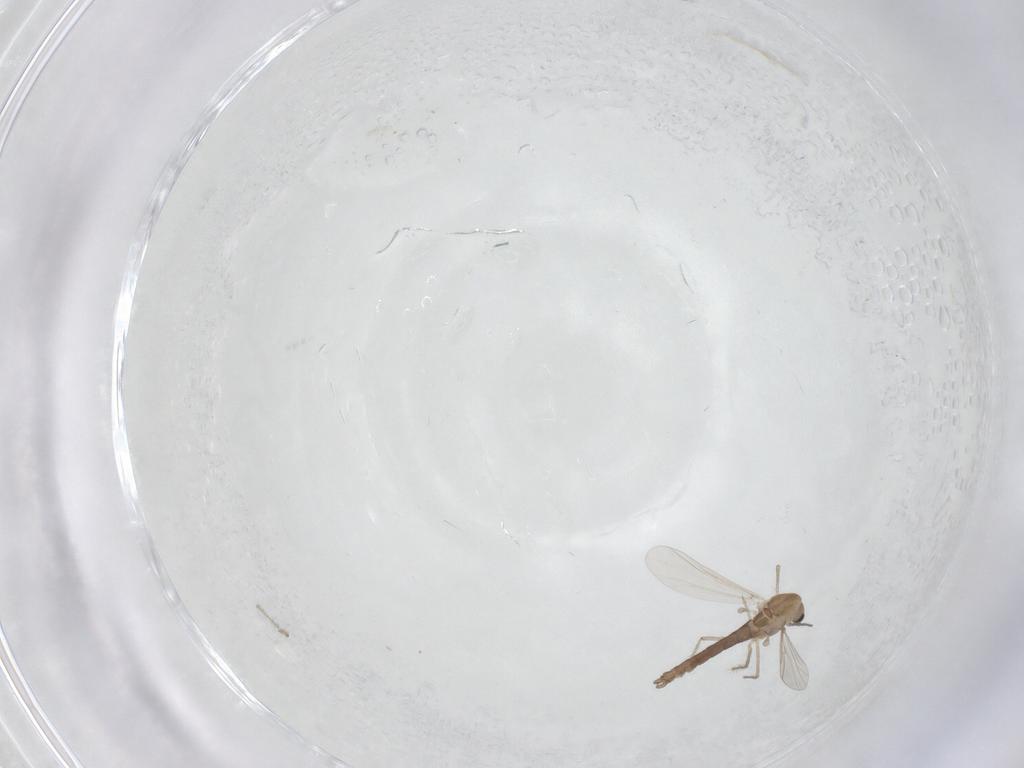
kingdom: Animalia
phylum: Arthropoda
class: Insecta
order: Diptera
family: Chironomidae
